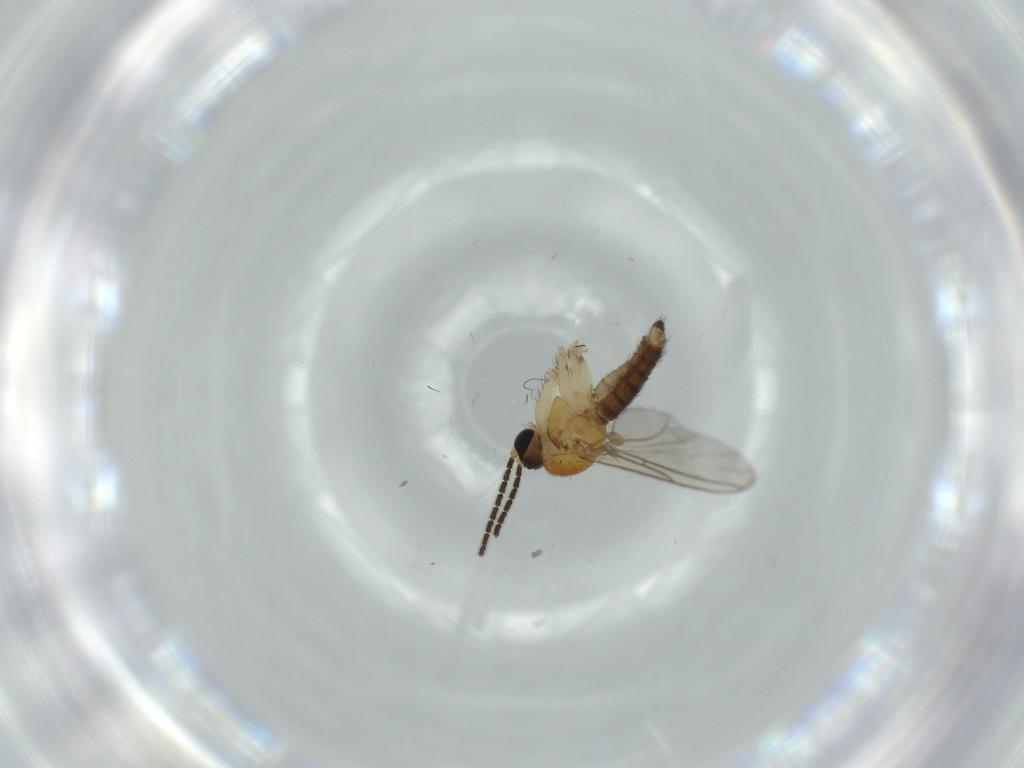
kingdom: Animalia
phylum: Arthropoda
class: Insecta
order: Diptera
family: Sciaridae
